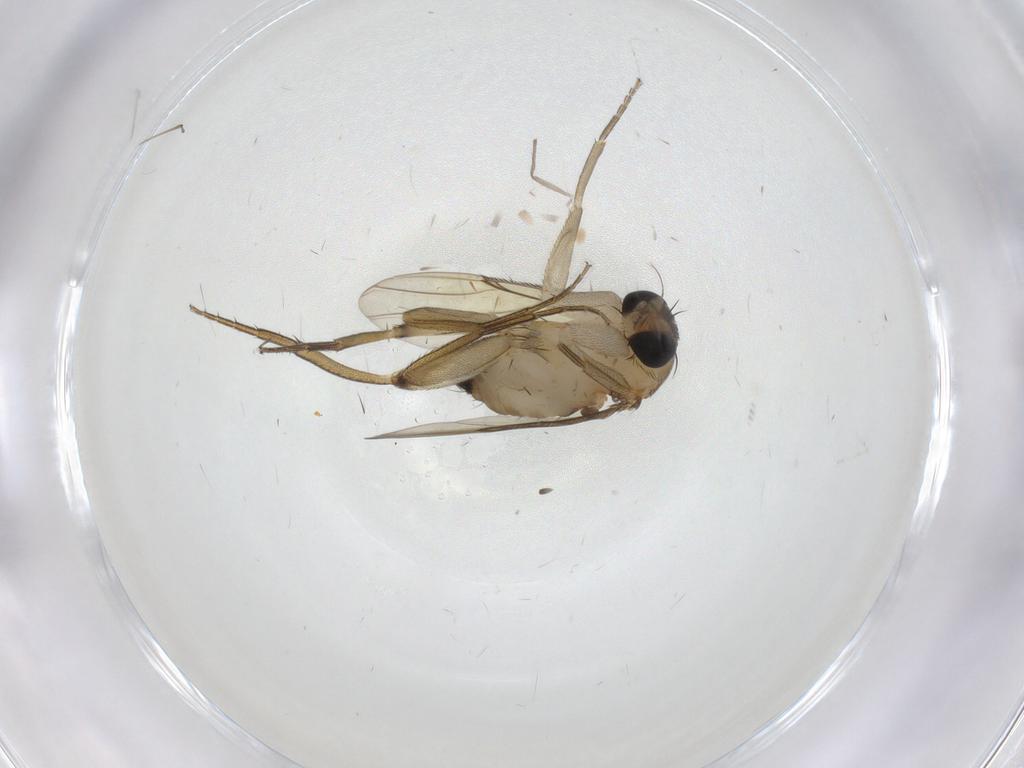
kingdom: Animalia
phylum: Arthropoda
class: Insecta
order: Diptera
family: Phoridae
